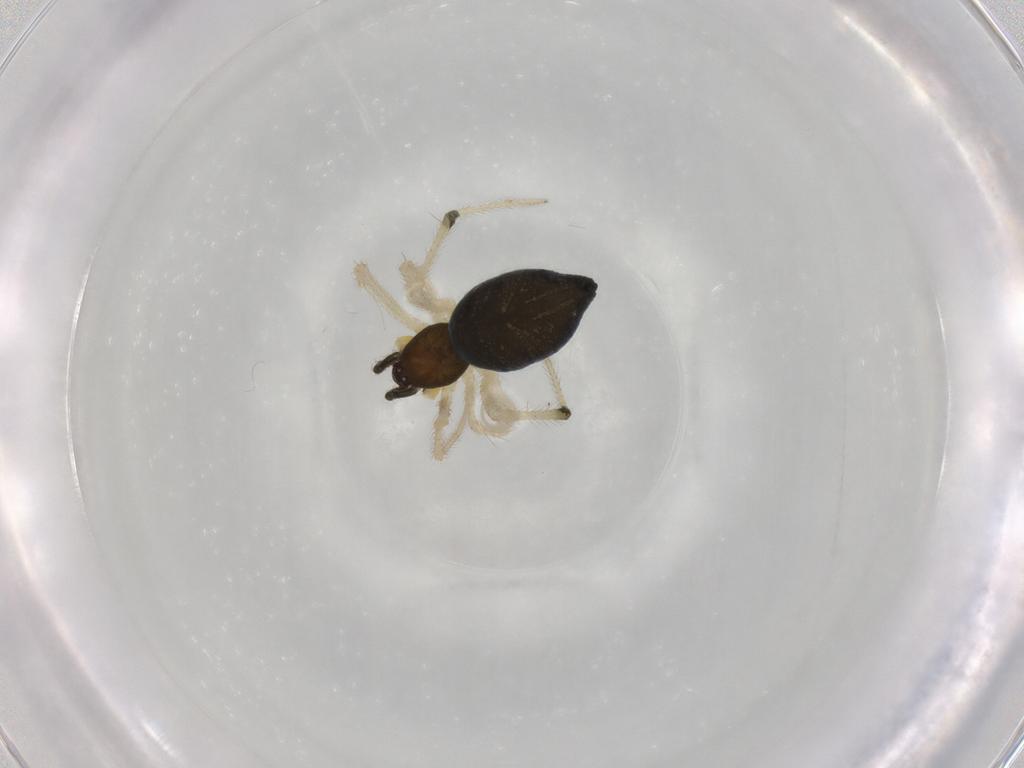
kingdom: Animalia
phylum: Arthropoda
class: Arachnida
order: Araneae
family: Theridiidae
